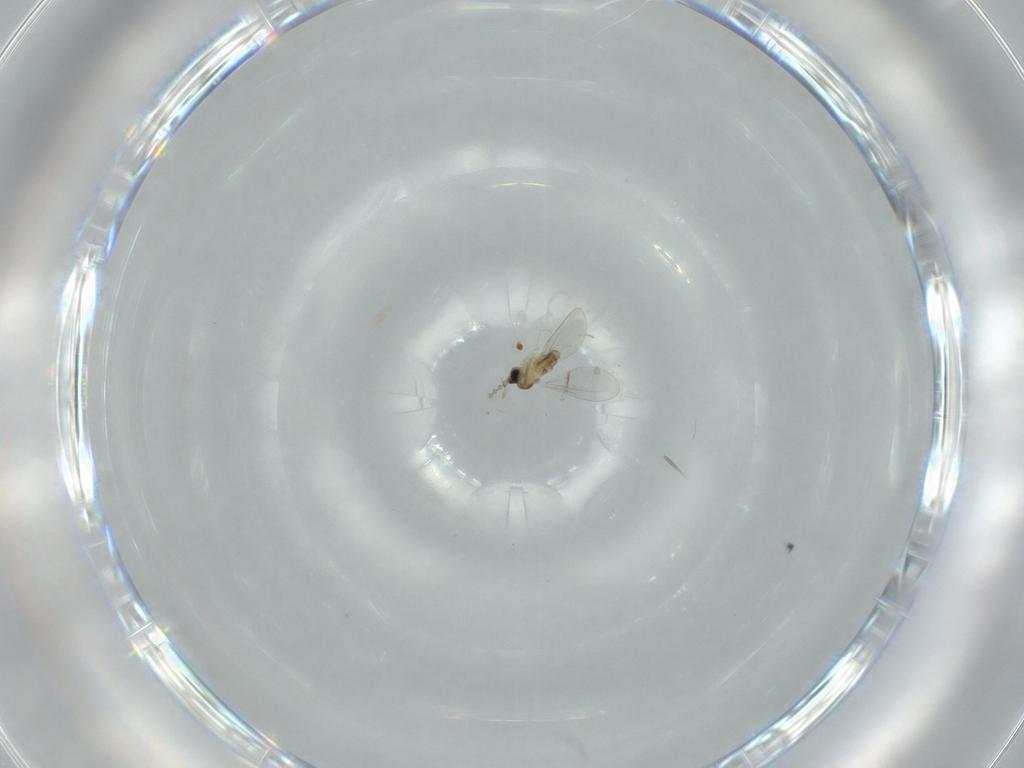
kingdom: Animalia
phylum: Arthropoda
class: Insecta
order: Diptera
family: Cecidomyiidae
